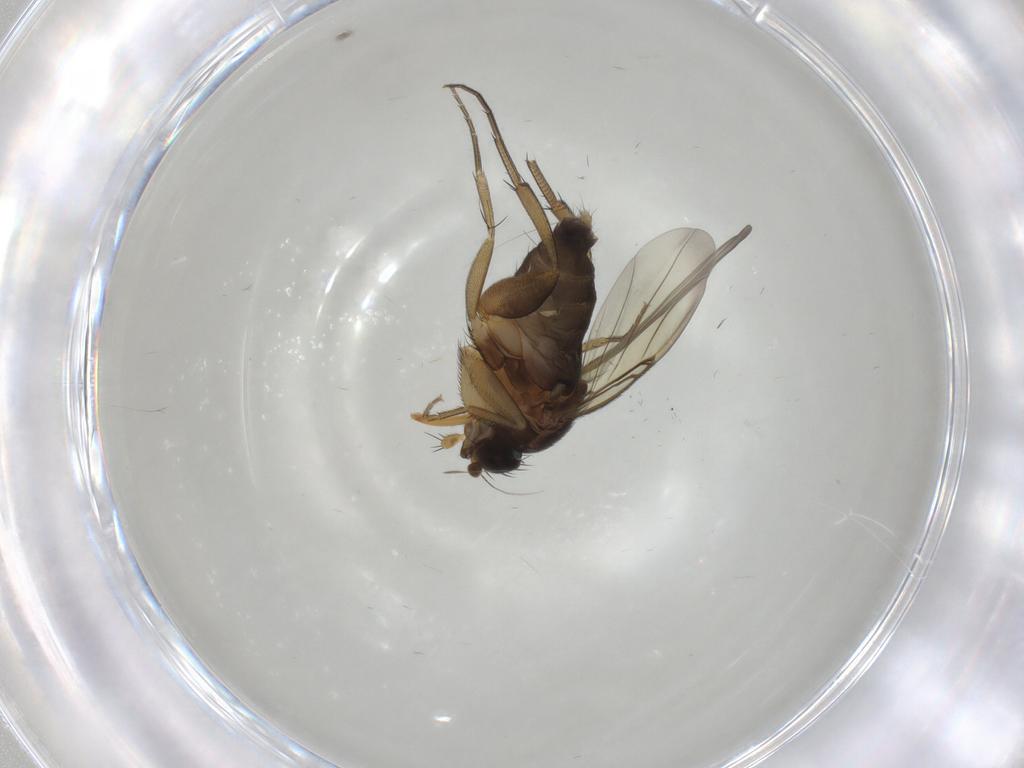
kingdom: Animalia
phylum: Arthropoda
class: Insecta
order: Diptera
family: Phoridae
